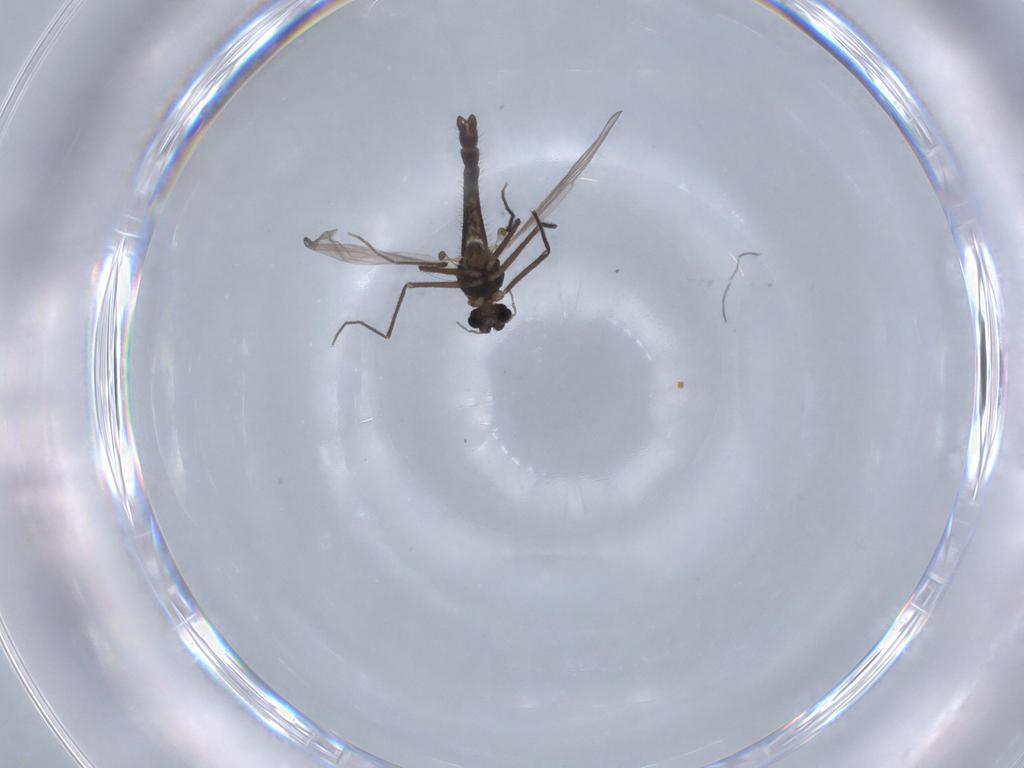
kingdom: Animalia
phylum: Arthropoda
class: Insecta
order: Diptera
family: Chironomidae
